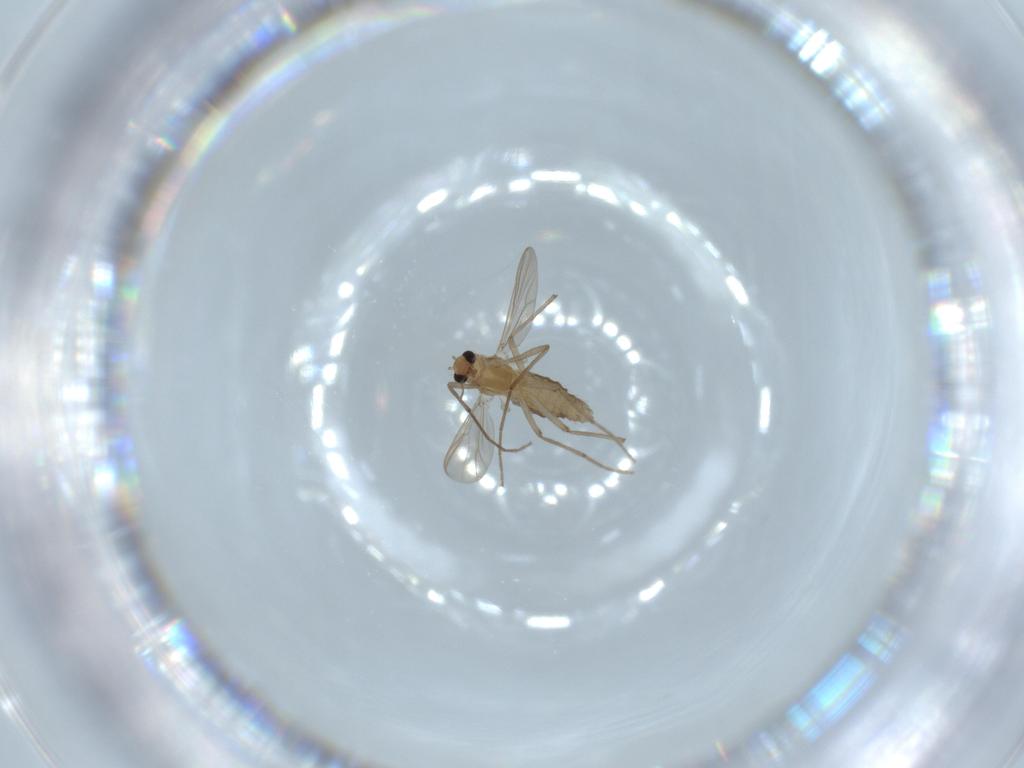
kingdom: Animalia
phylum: Arthropoda
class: Insecta
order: Diptera
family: Chironomidae
